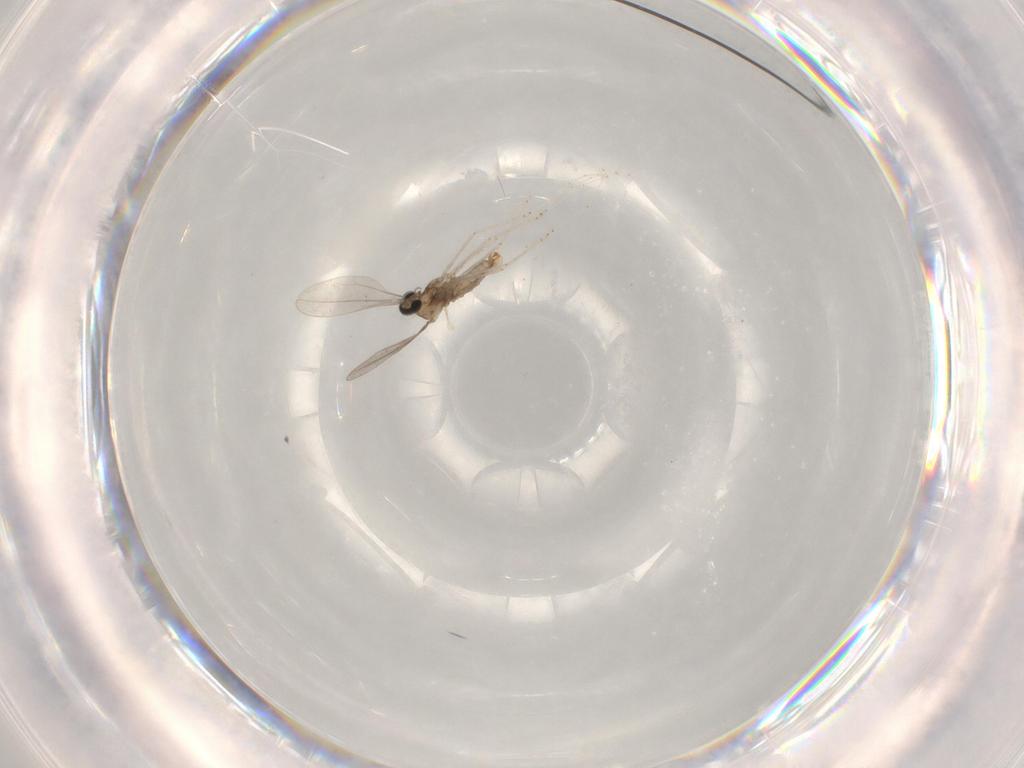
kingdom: Animalia
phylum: Arthropoda
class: Insecta
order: Diptera
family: Cecidomyiidae
